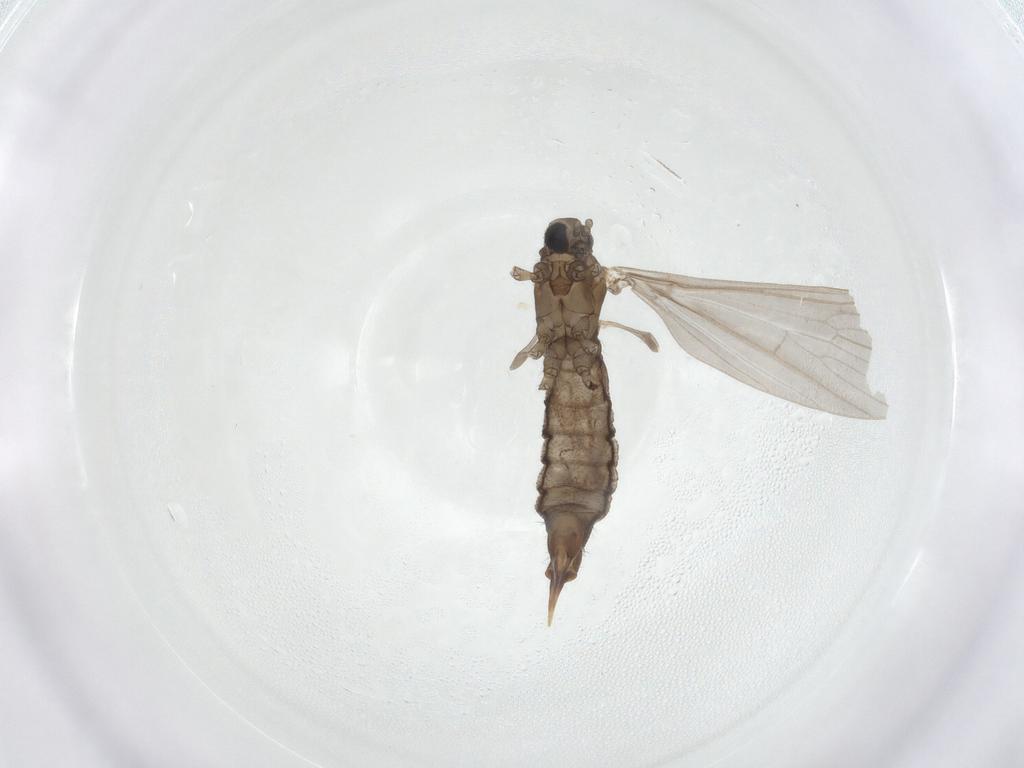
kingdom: Animalia
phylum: Arthropoda
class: Insecta
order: Diptera
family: Limoniidae
